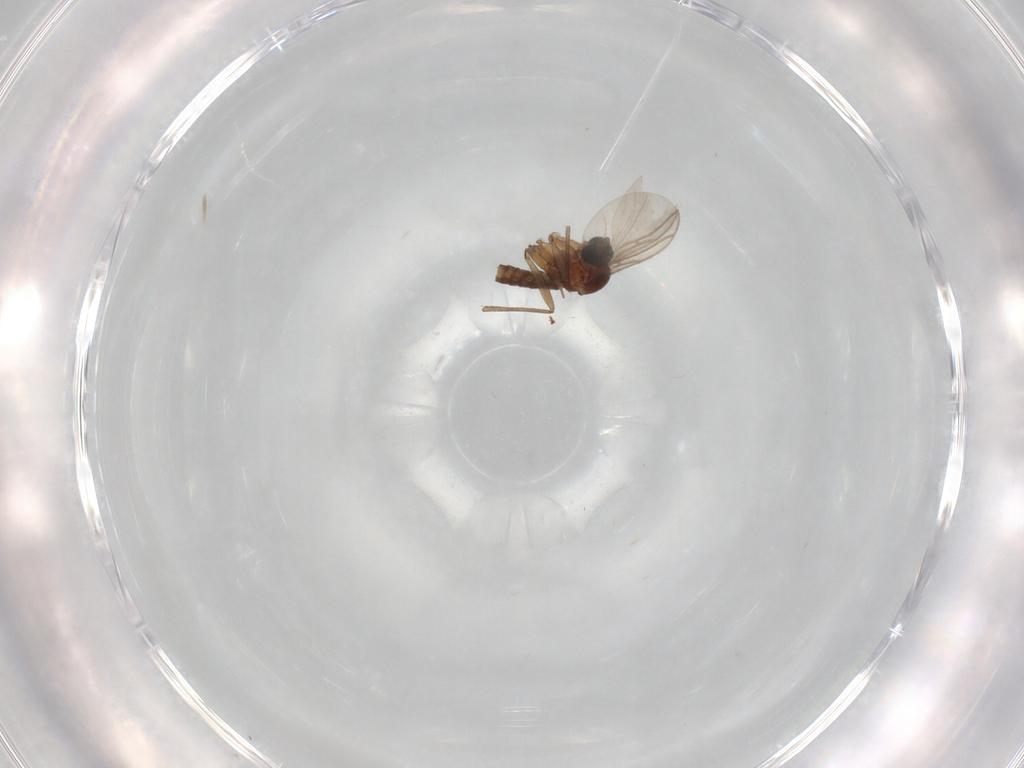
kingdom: Animalia
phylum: Arthropoda
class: Insecta
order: Diptera
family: Sciaridae
